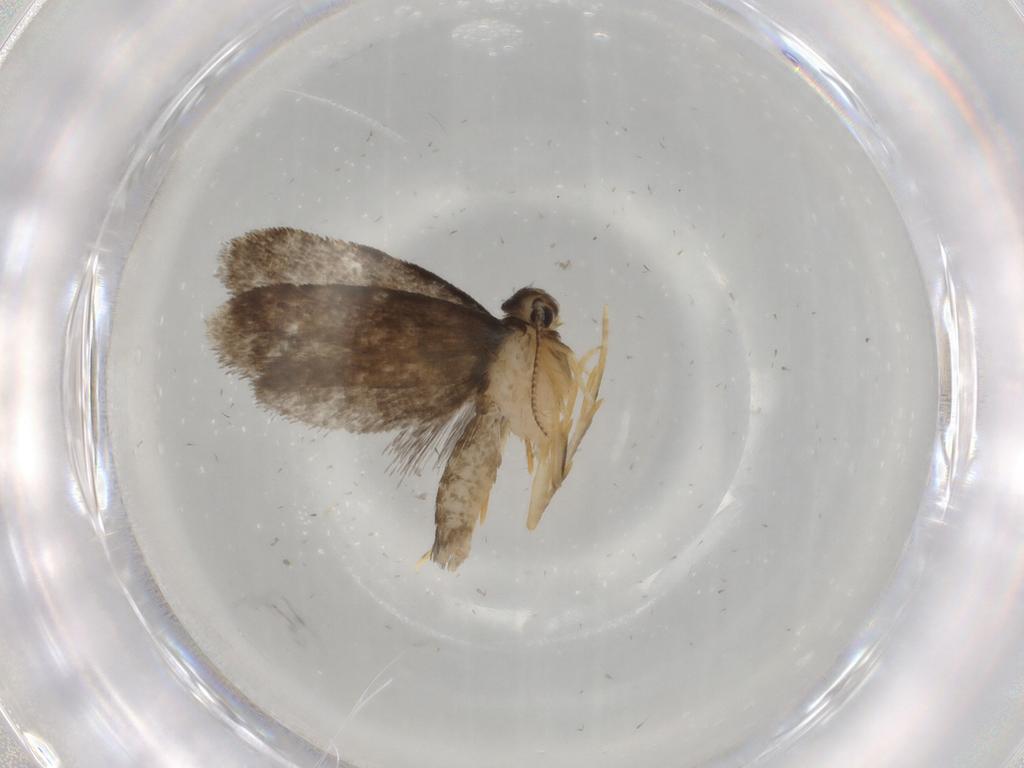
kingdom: Animalia
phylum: Arthropoda
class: Insecta
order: Lepidoptera
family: Psychidae
